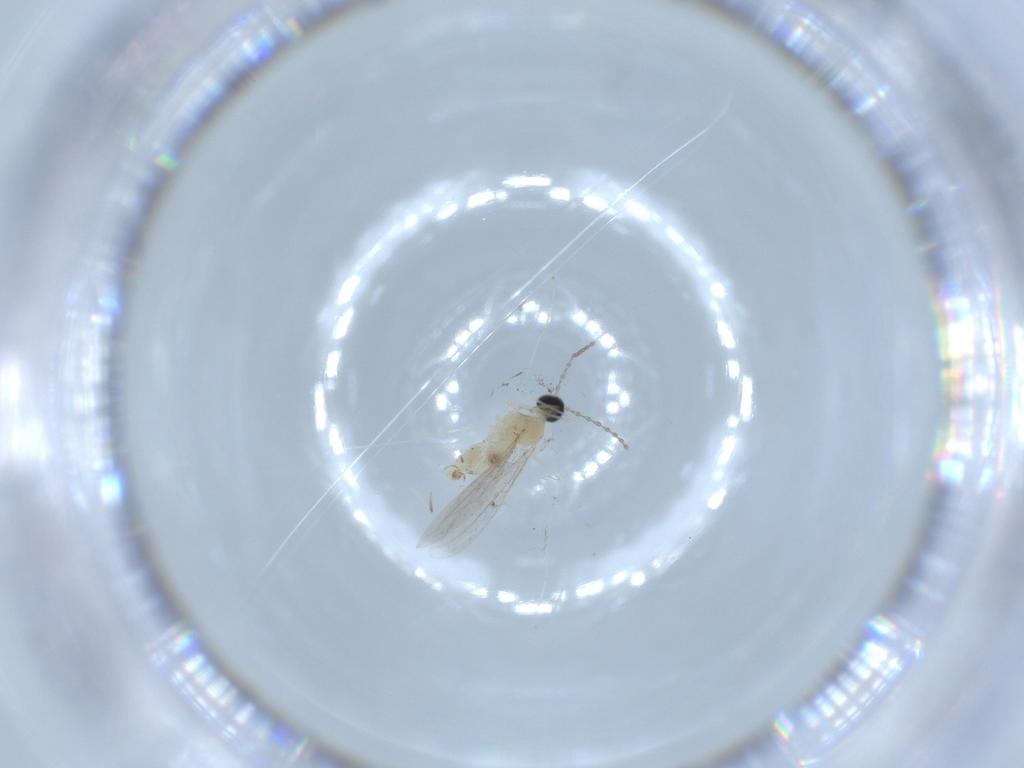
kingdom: Animalia
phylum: Arthropoda
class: Insecta
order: Diptera
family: Cecidomyiidae
